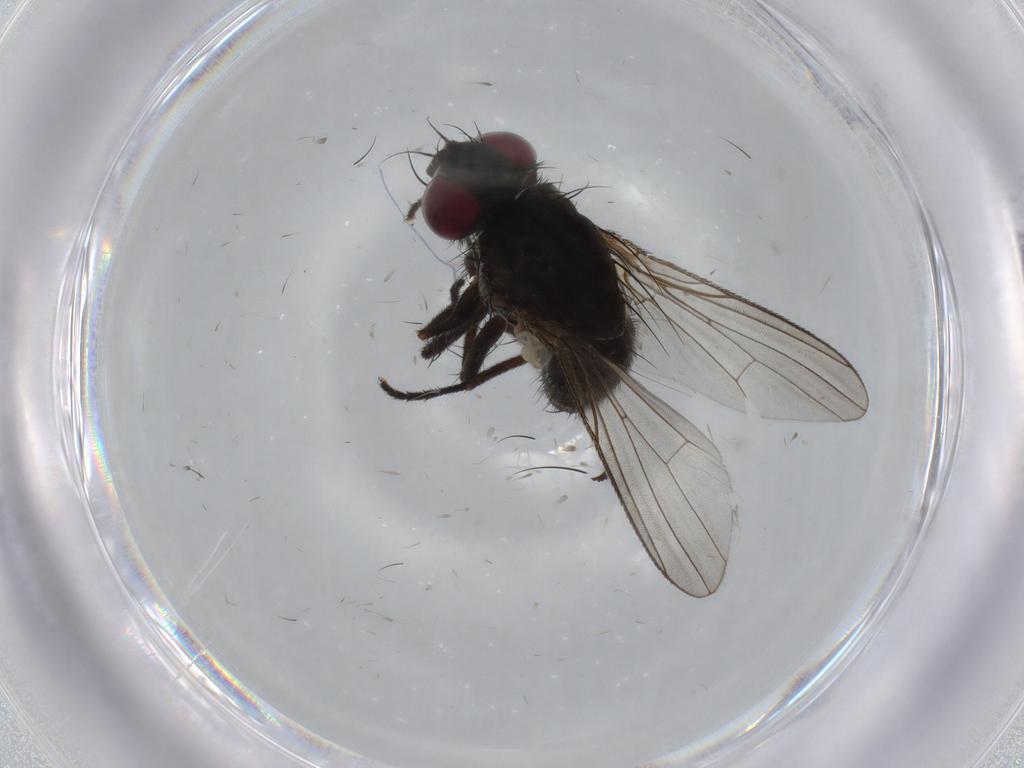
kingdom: Animalia
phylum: Arthropoda
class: Insecta
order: Diptera
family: Muscidae
